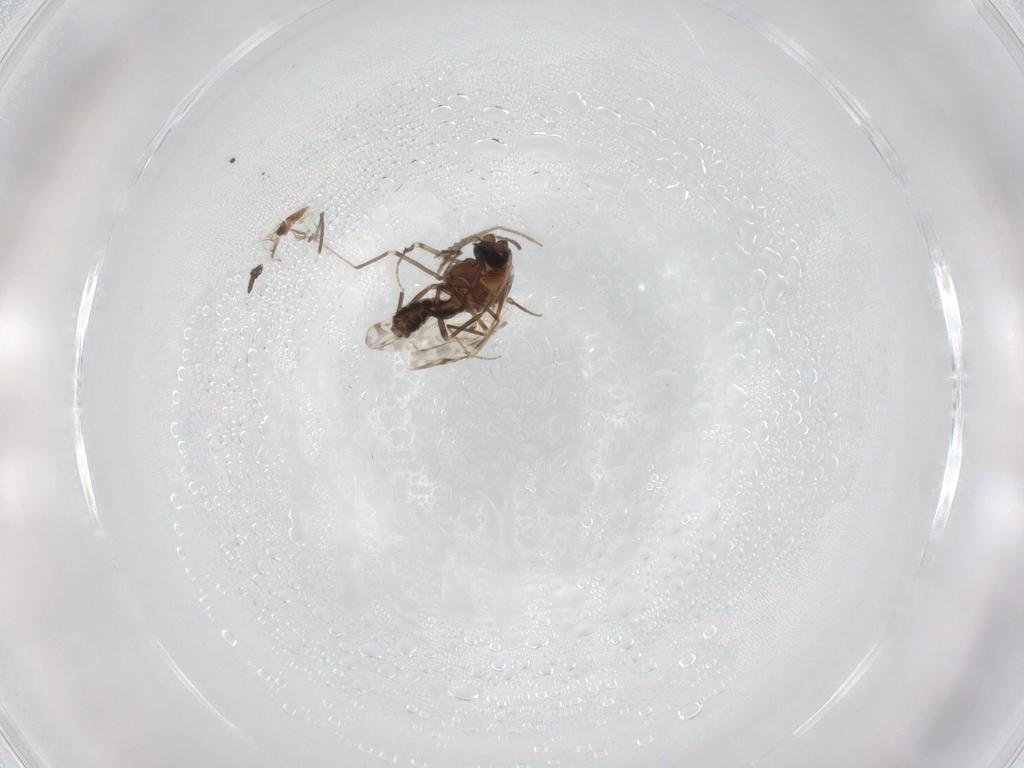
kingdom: Animalia
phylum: Arthropoda
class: Insecta
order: Diptera
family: Ceratopogonidae
